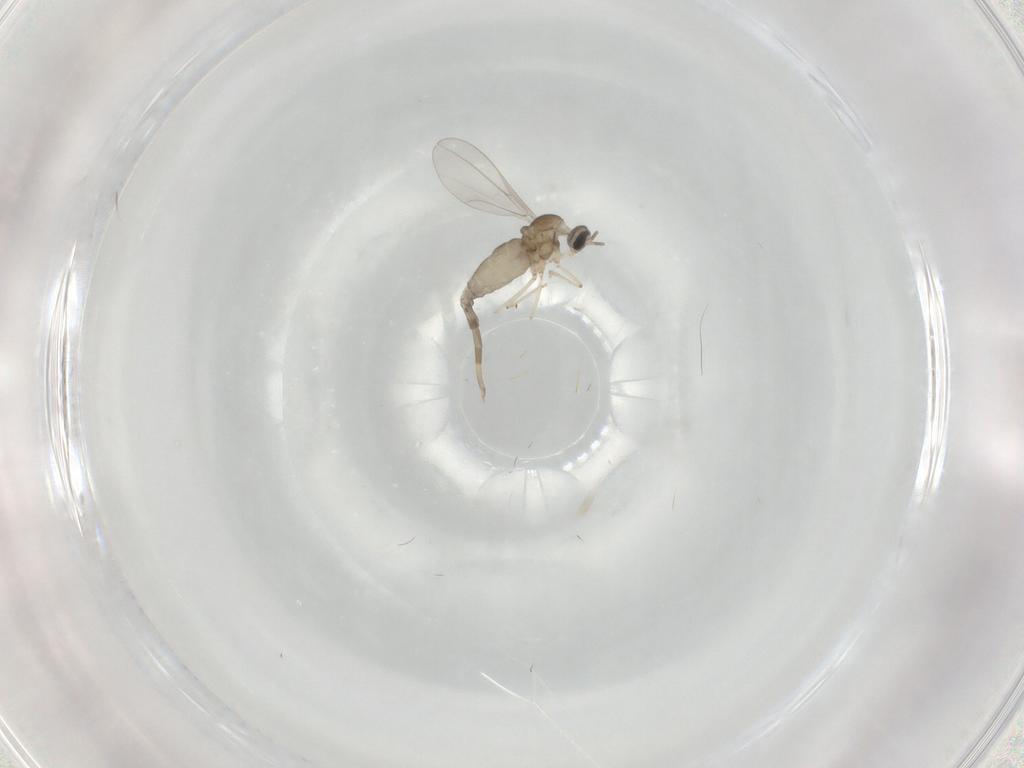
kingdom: Animalia
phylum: Arthropoda
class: Insecta
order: Diptera
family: Cecidomyiidae
